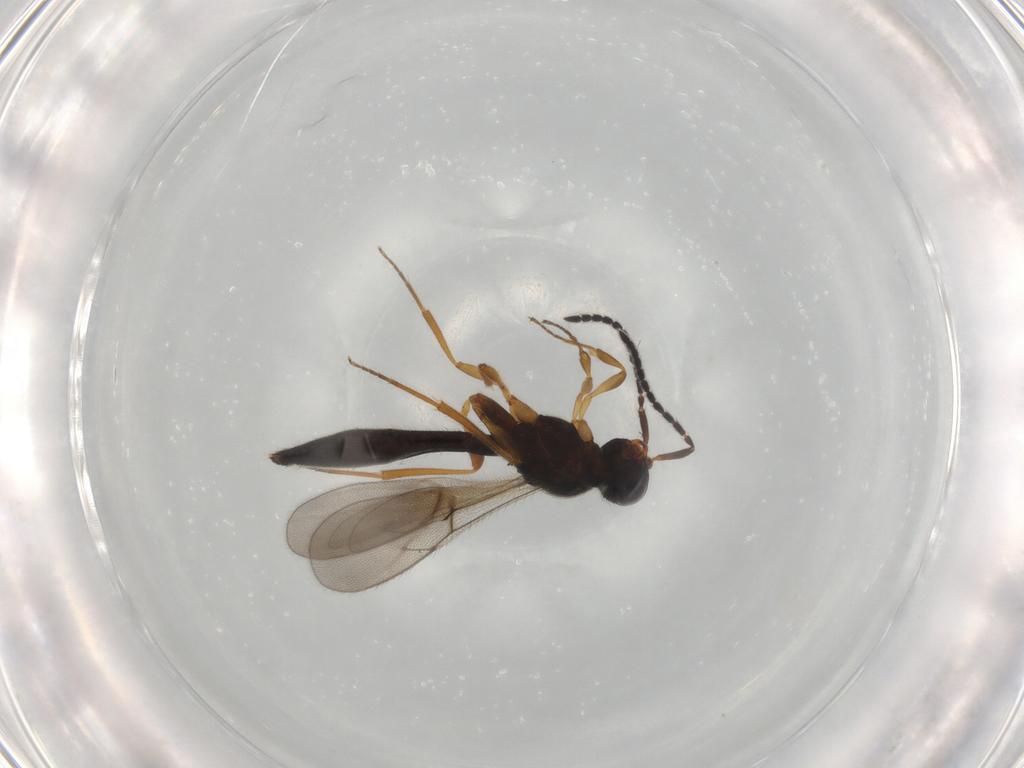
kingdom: Animalia
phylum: Arthropoda
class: Insecta
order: Hymenoptera
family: Scelionidae
